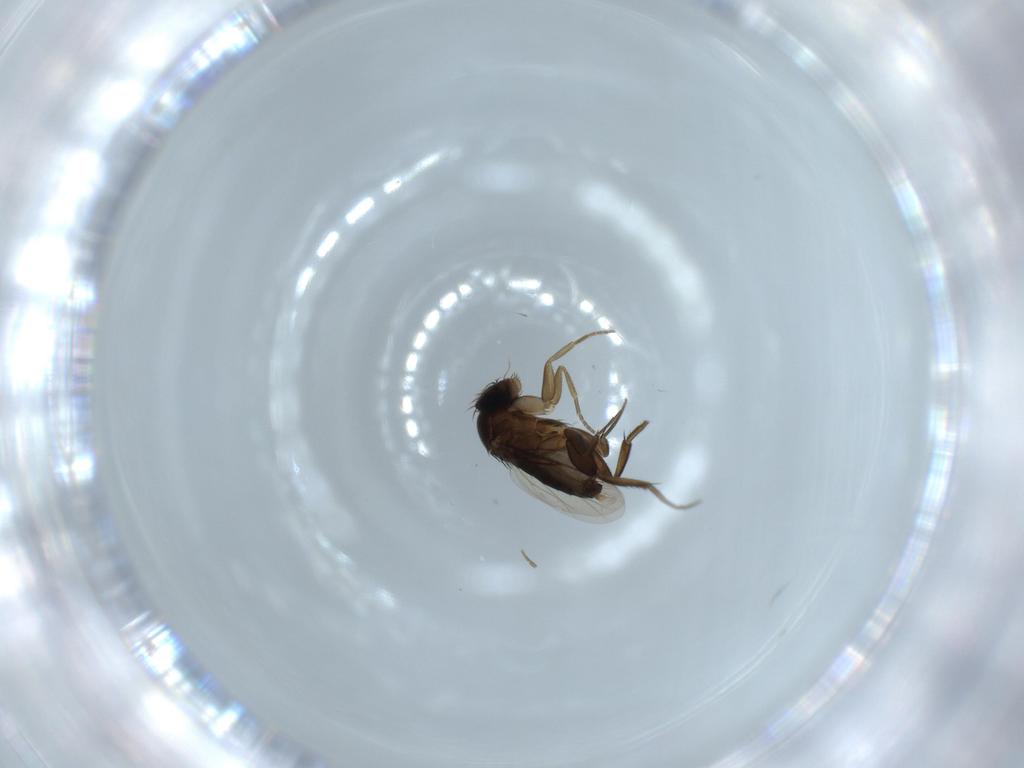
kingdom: Animalia
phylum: Arthropoda
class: Insecta
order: Diptera
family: Phoridae
